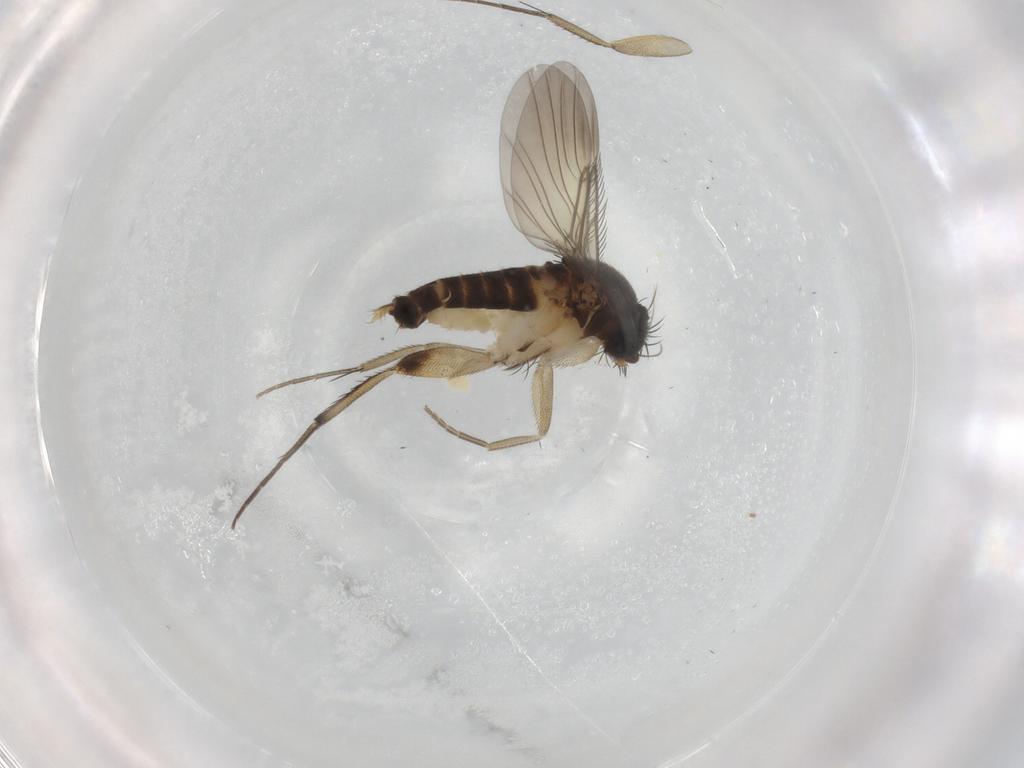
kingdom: Animalia
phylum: Arthropoda
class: Insecta
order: Diptera
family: Phoridae
